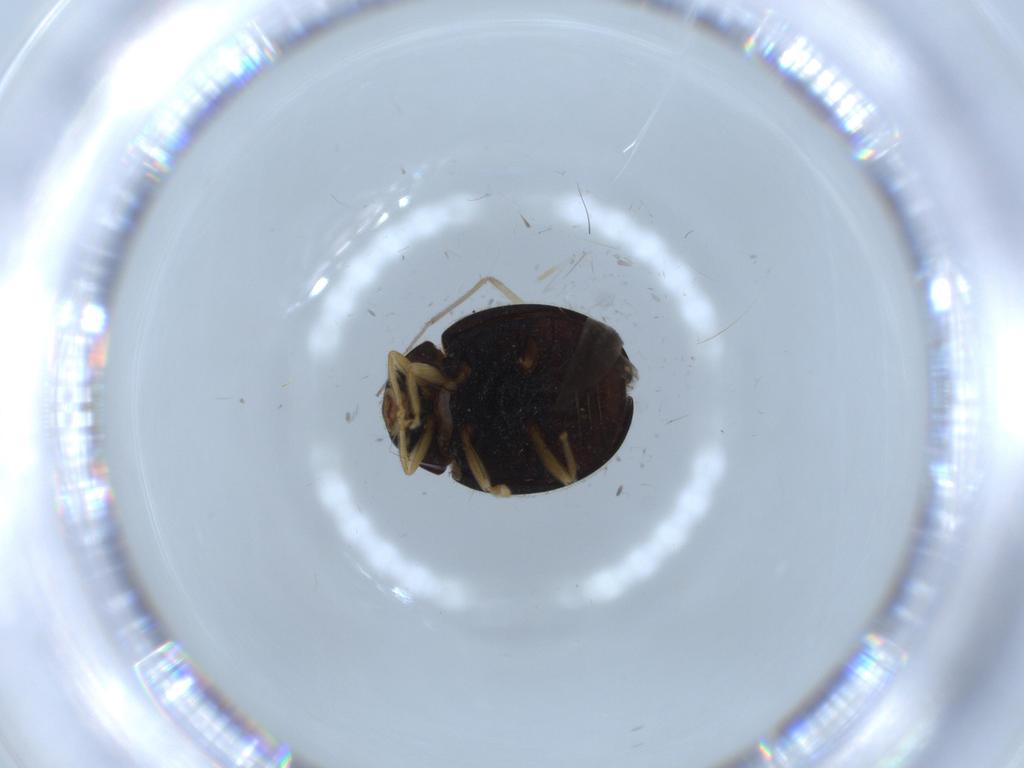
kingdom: Animalia
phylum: Arthropoda
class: Insecta
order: Coleoptera
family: Coccinellidae
